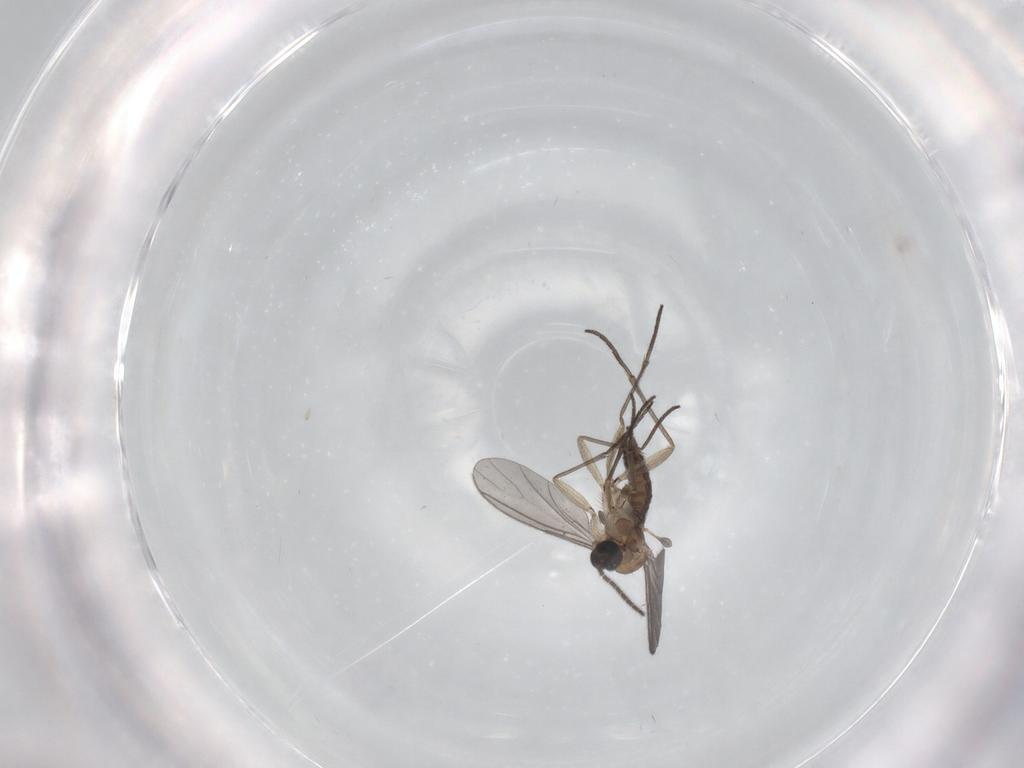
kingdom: Animalia
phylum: Arthropoda
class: Insecta
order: Diptera
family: Sciaridae
